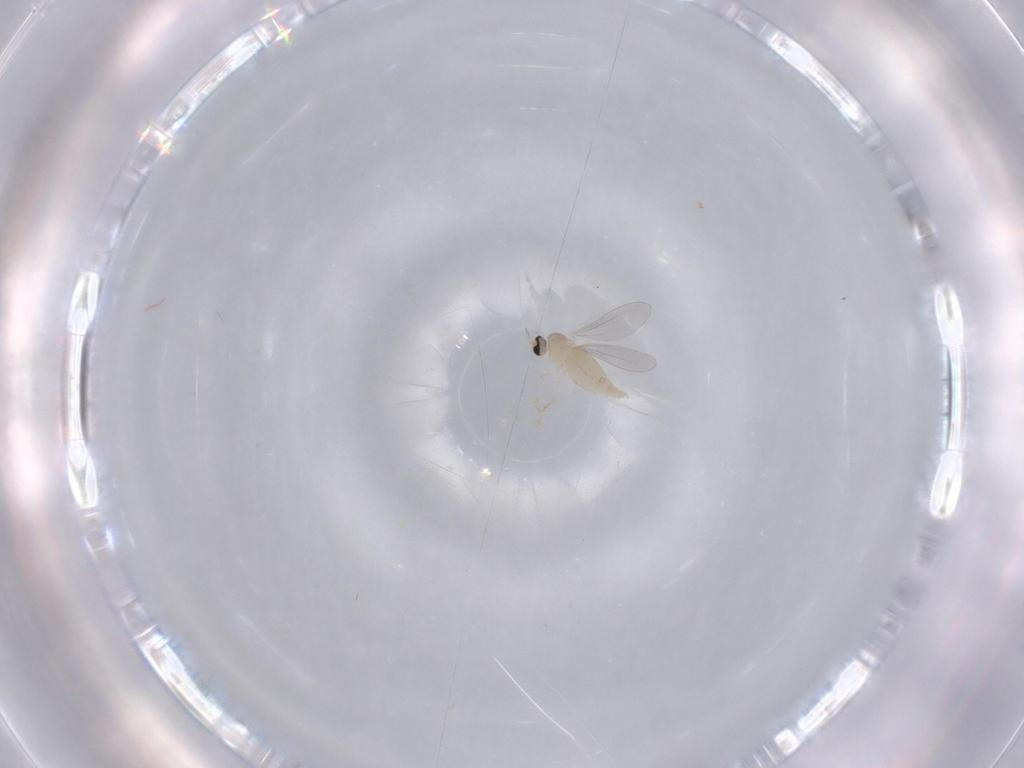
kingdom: Animalia
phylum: Arthropoda
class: Insecta
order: Diptera
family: Cecidomyiidae
